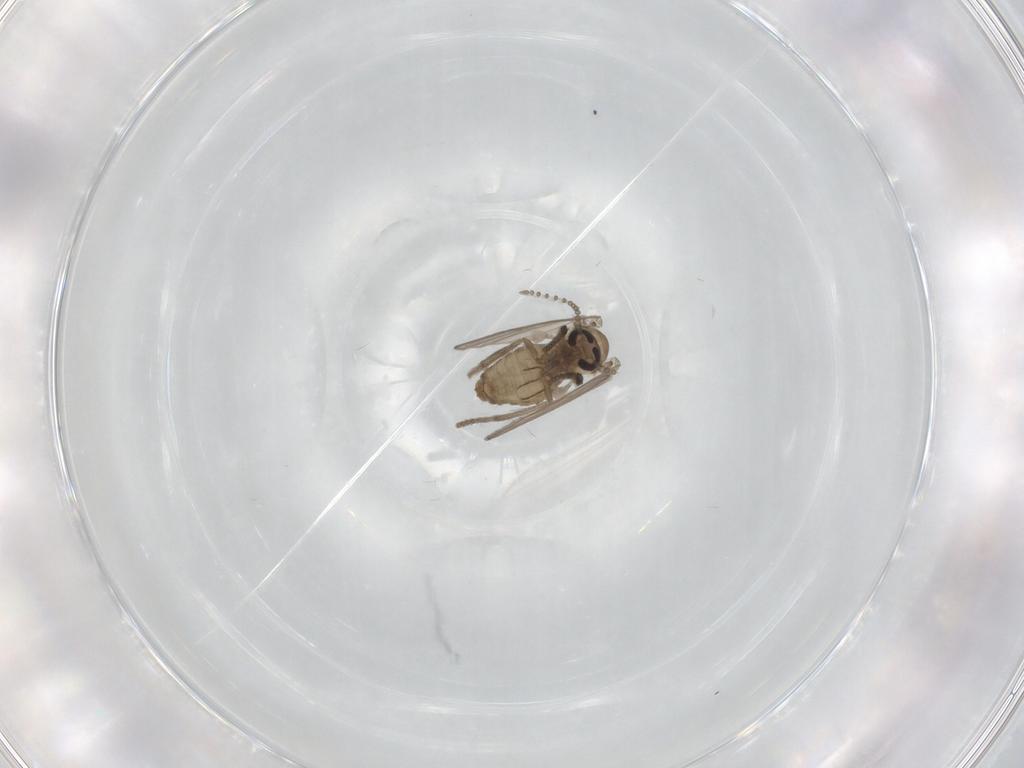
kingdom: Animalia
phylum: Arthropoda
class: Insecta
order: Diptera
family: Psychodidae
